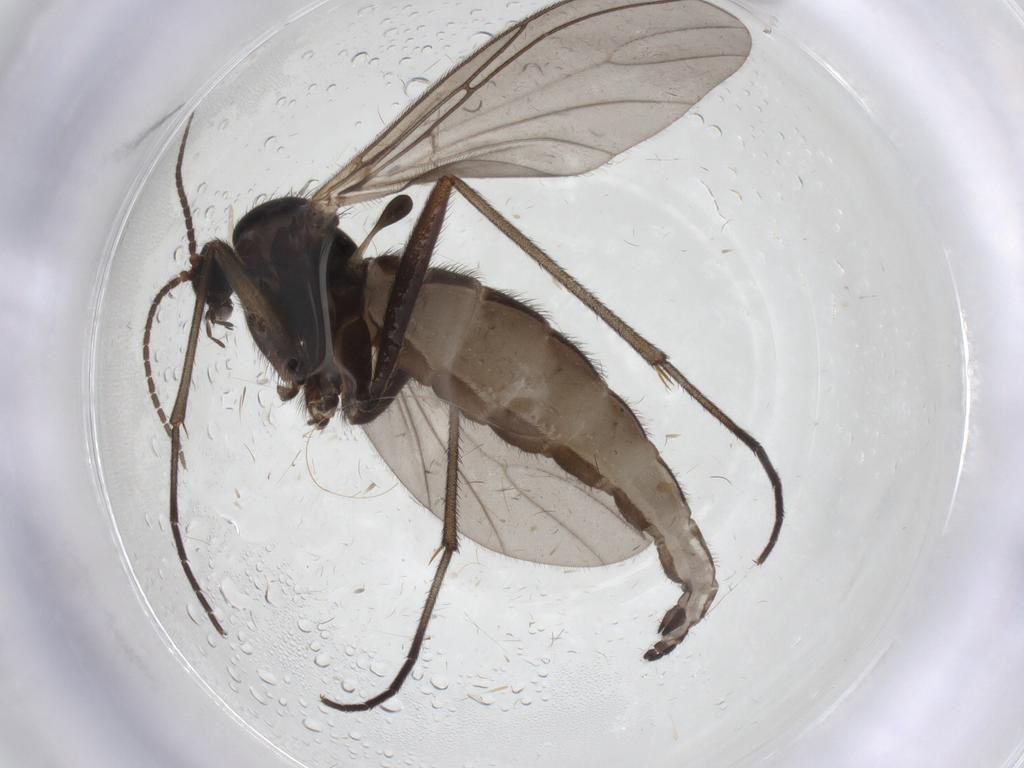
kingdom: Animalia
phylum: Arthropoda
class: Insecta
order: Diptera
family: Sciaridae
